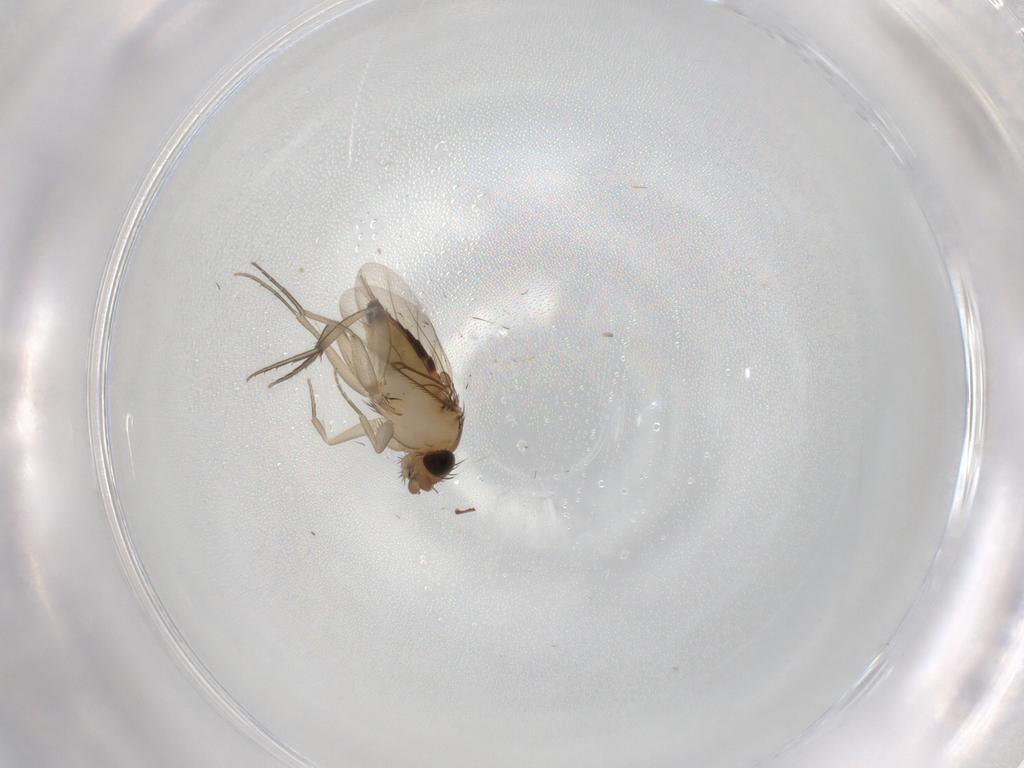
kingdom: Animalia
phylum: Arthropoda
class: Insecta
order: Diptera
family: Phoridae
